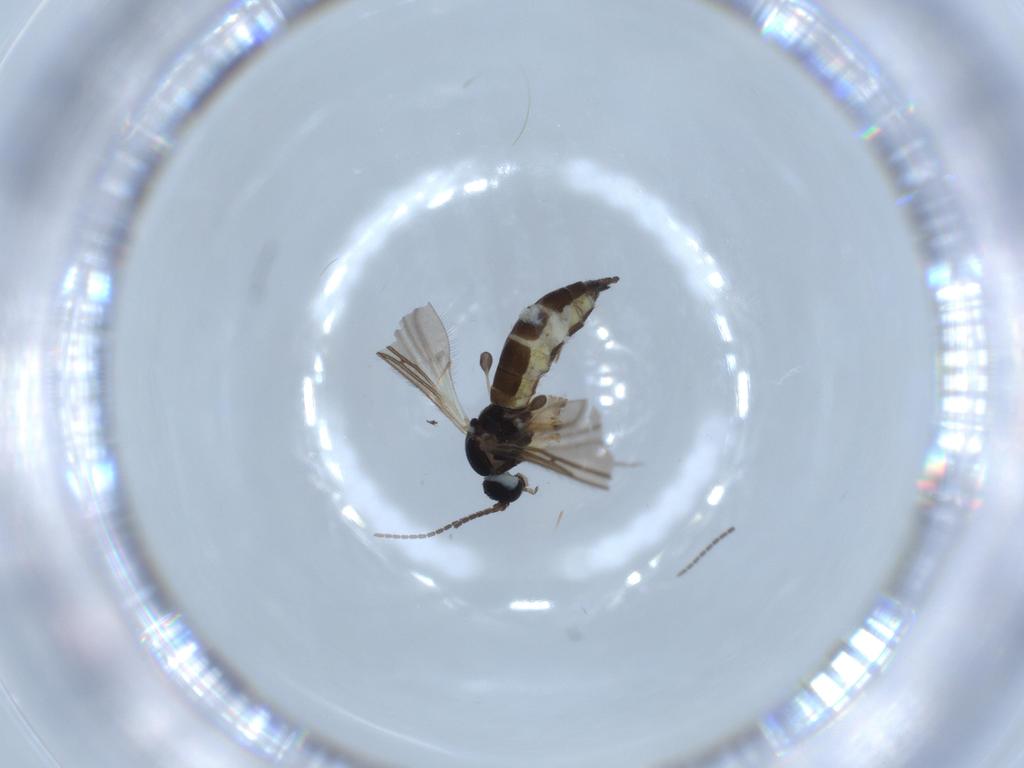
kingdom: Animalia
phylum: Arthropoda
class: Insecta
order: Diptera
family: Sciaridae
